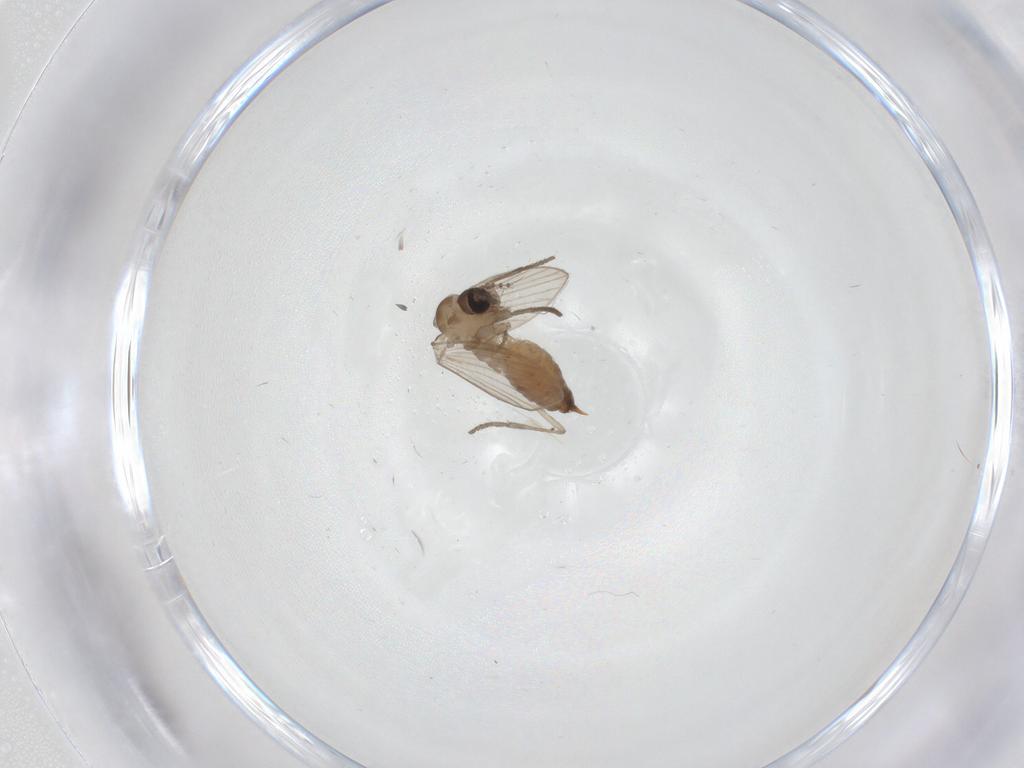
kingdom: Animalia
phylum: Arthropoda
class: Insecta
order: Diptera
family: Psychodidae
